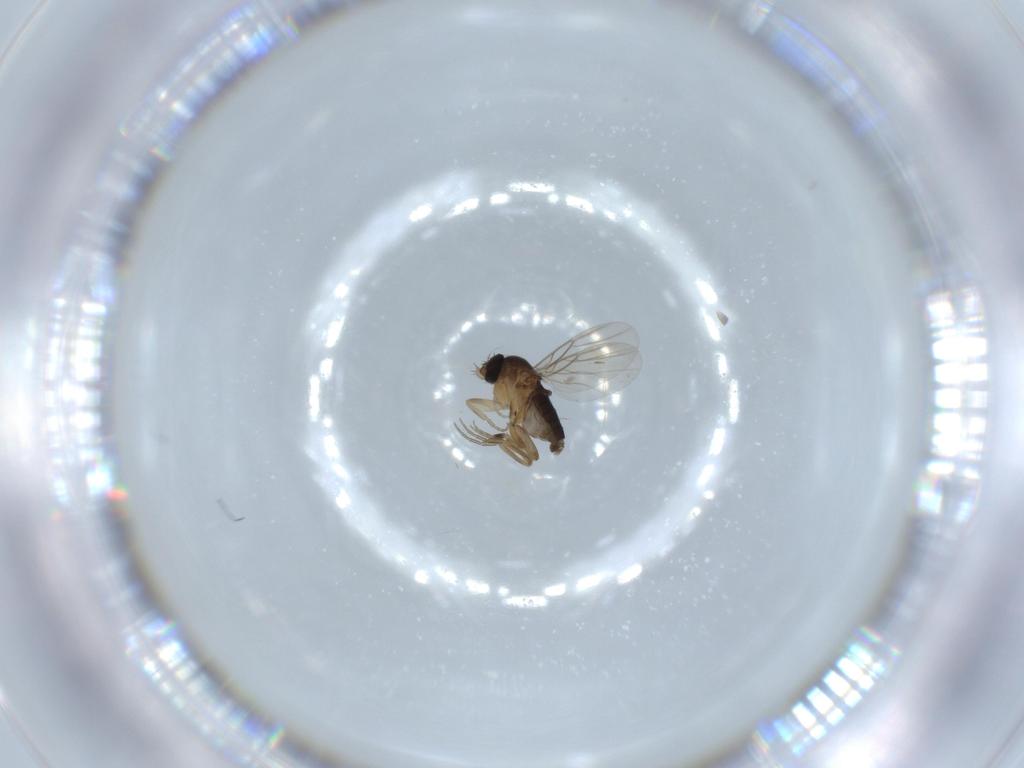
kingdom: Animalia
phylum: Arthropoda
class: Insecta
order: Diptera
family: Phoridae
